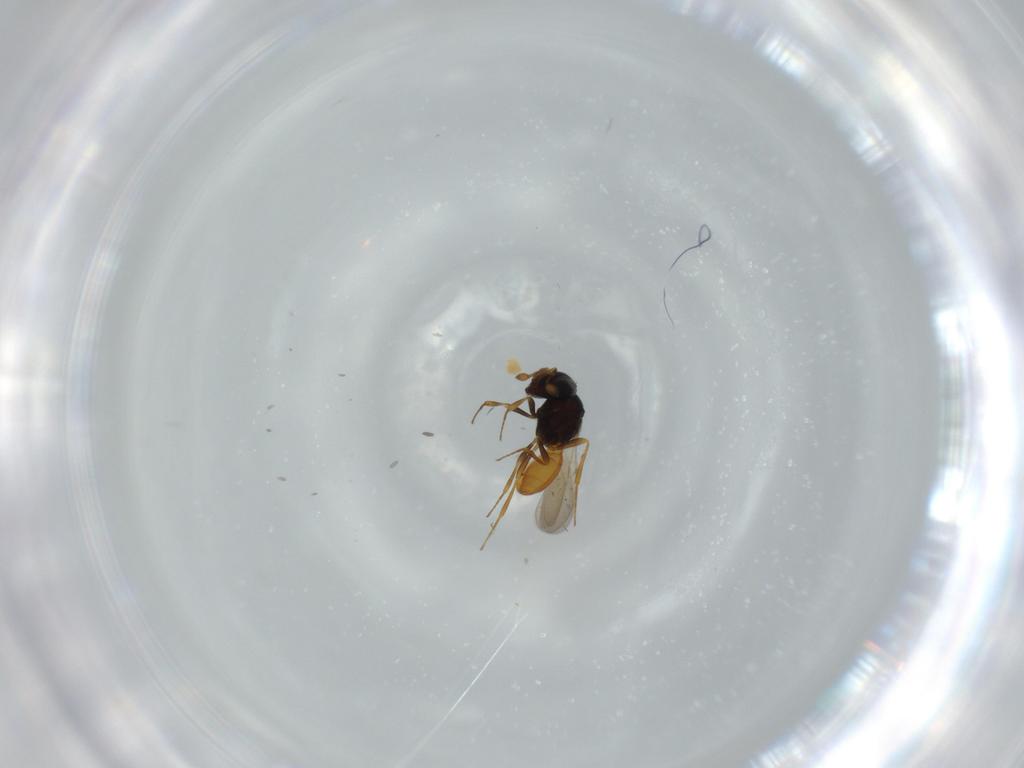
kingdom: Animalia
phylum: Arthropoda
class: Insecta
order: Hymenoptera
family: Scelionidae
